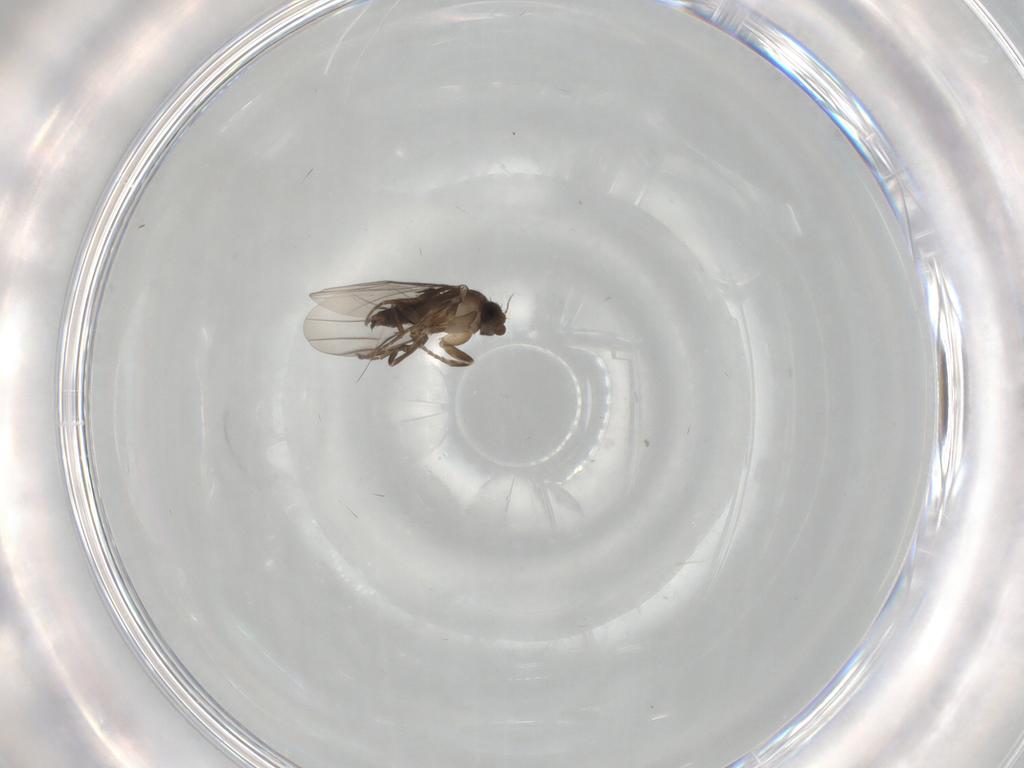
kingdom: Animalia
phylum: Arthropoda
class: Insecta
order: Diptera
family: Phoridae
